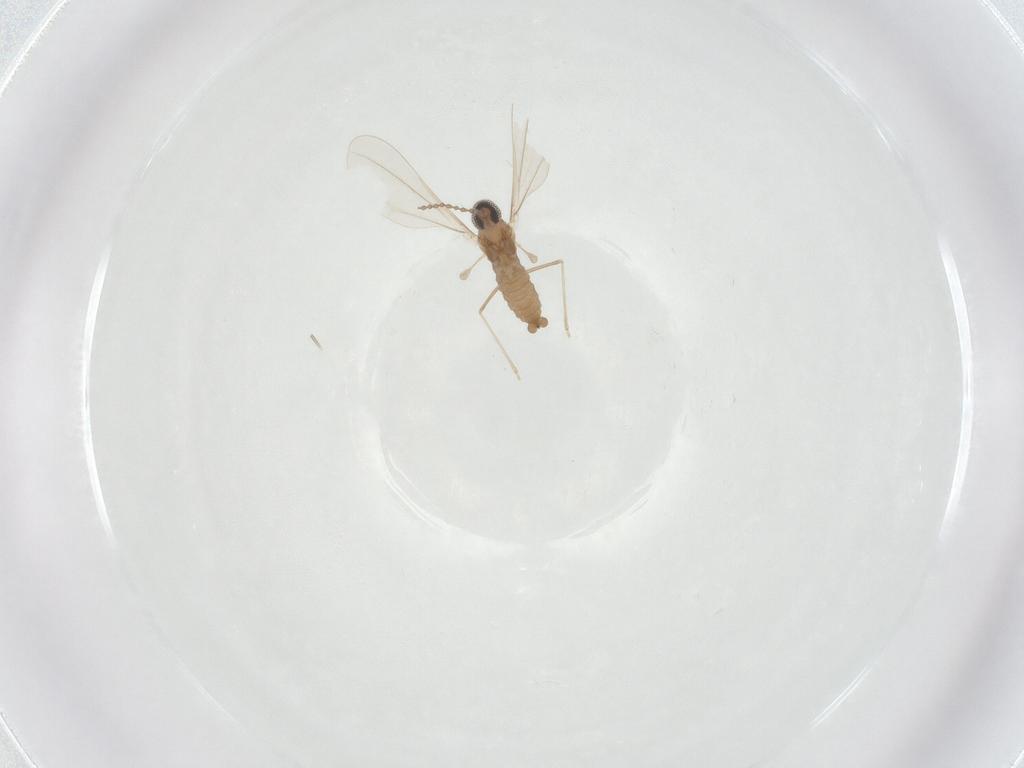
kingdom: Animalia
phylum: Arthropoda
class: Insecta
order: Diptera
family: Cecidomyiidae
